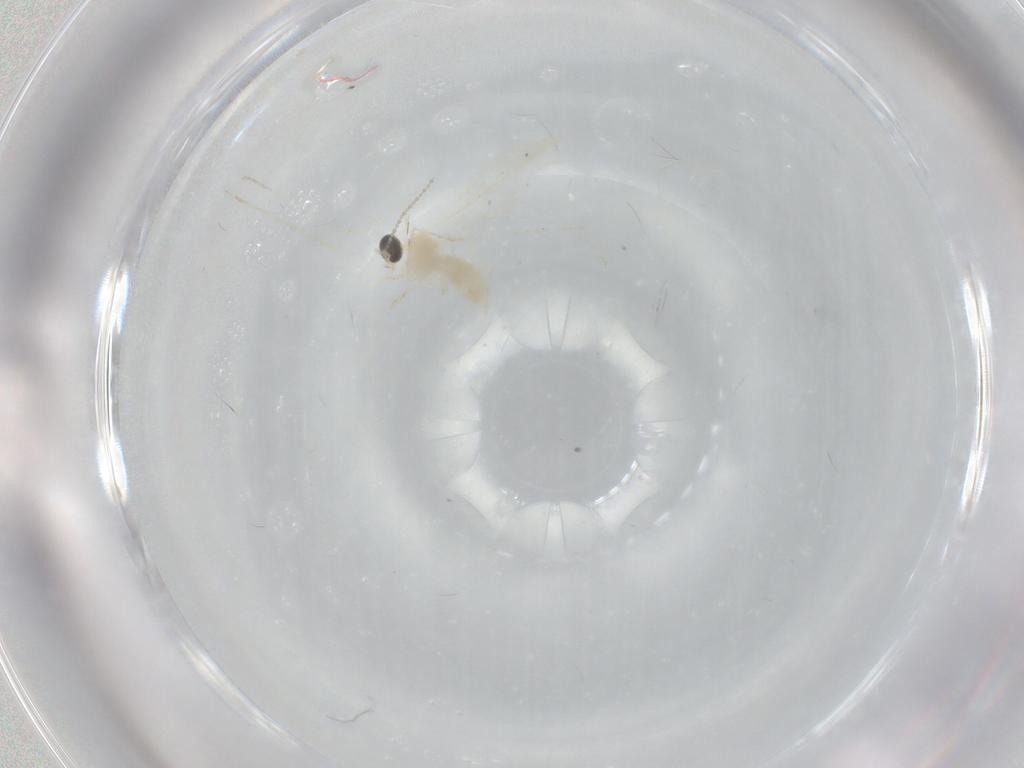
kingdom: Animalia
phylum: Arthropoda
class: Insecta
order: Diptera
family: Cecidomyiidae
